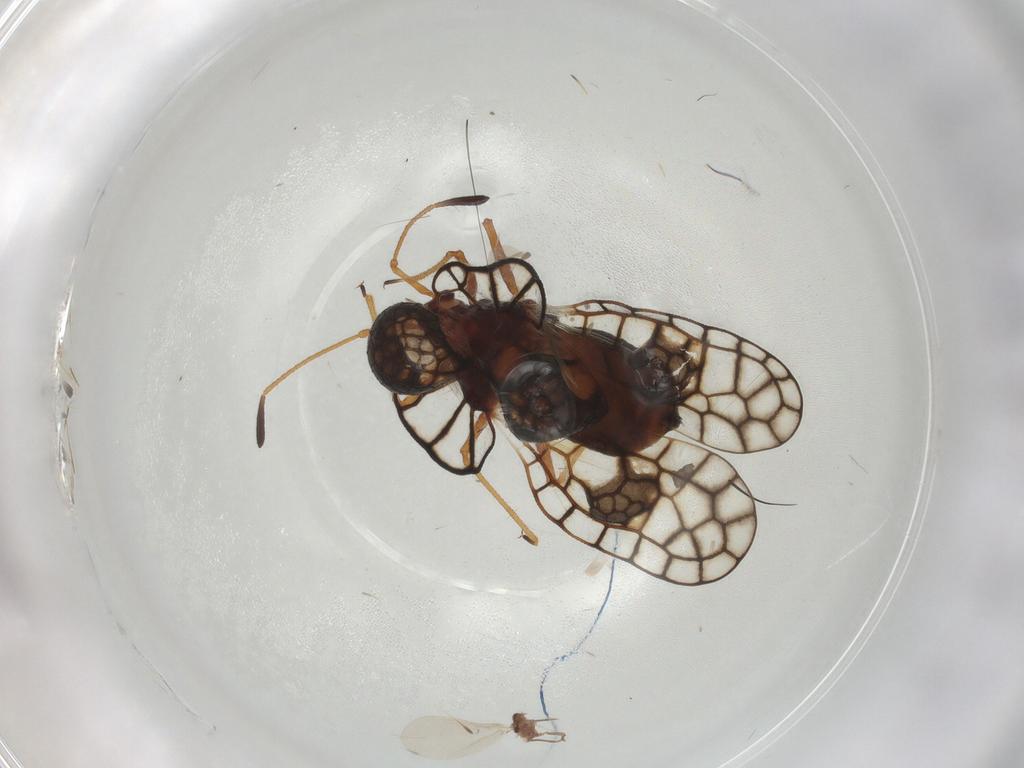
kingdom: Animalia
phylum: Arthropoda
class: Insecta
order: Hemiptera
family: Tingidae
